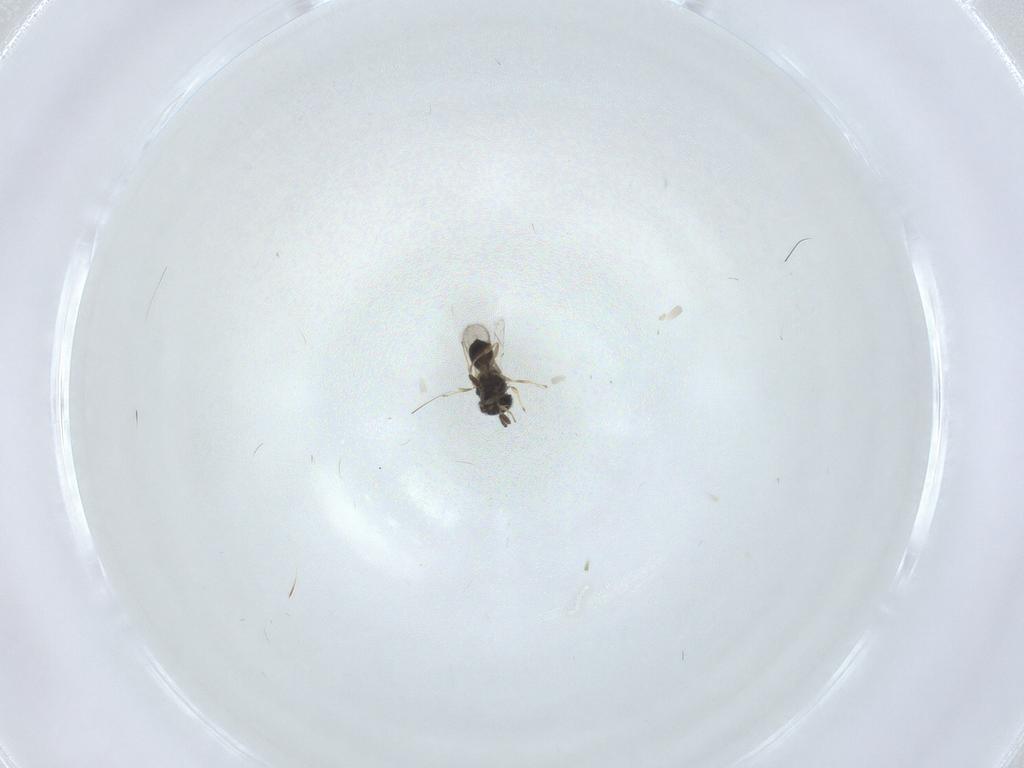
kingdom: Animalia
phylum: Arthropoda
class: Insecta
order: Hymenoptera
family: Scelionidae
